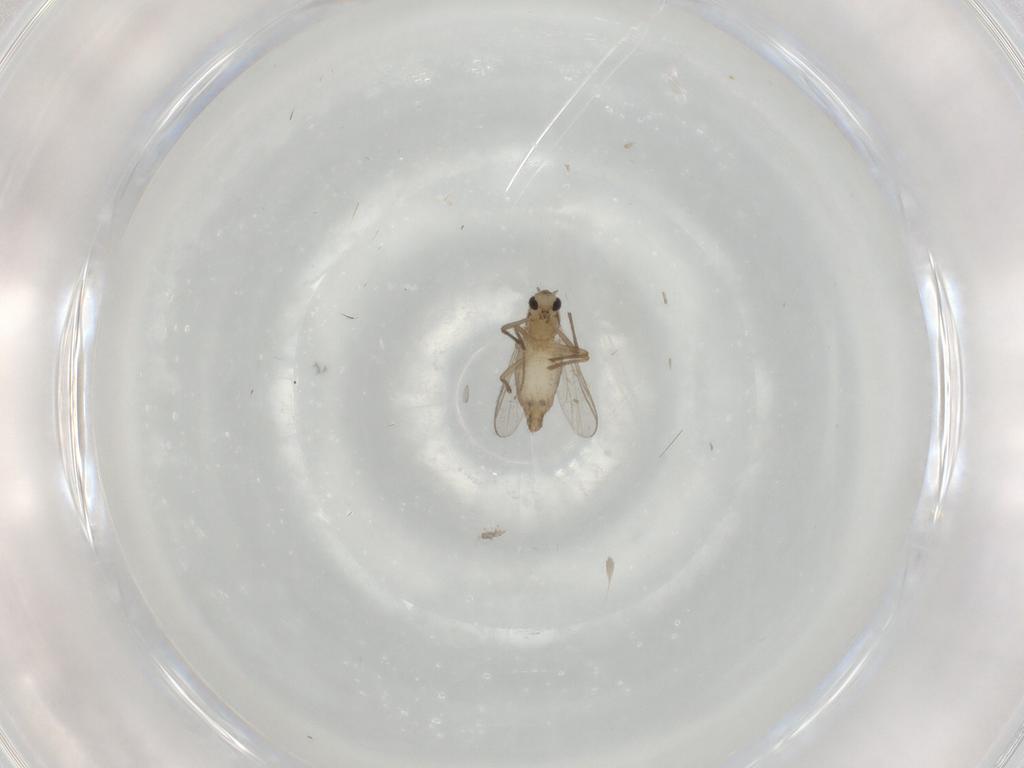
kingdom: Animalia
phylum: Arthropoda
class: Insecta
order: Diptera
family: Chironomidae
